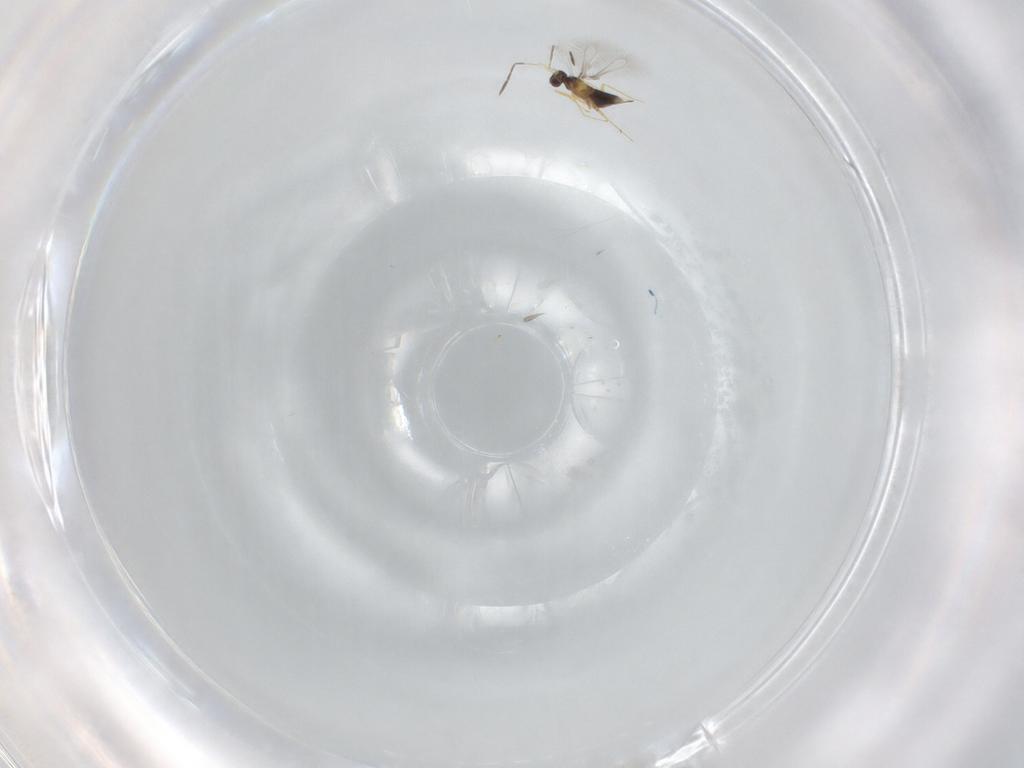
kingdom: Animalia
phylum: Arthropoda
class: Insecta
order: Hymenoptera
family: Mymaridae
